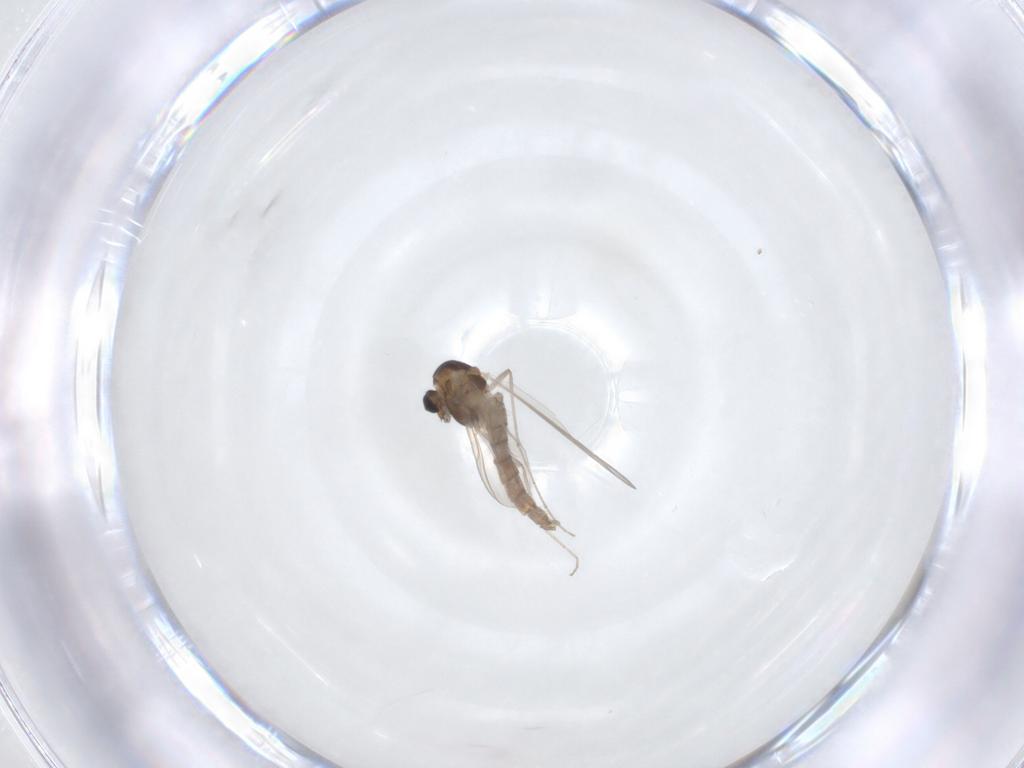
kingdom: Animalia
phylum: Arthropoda
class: Insecta
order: Diptera
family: Chironomidae
